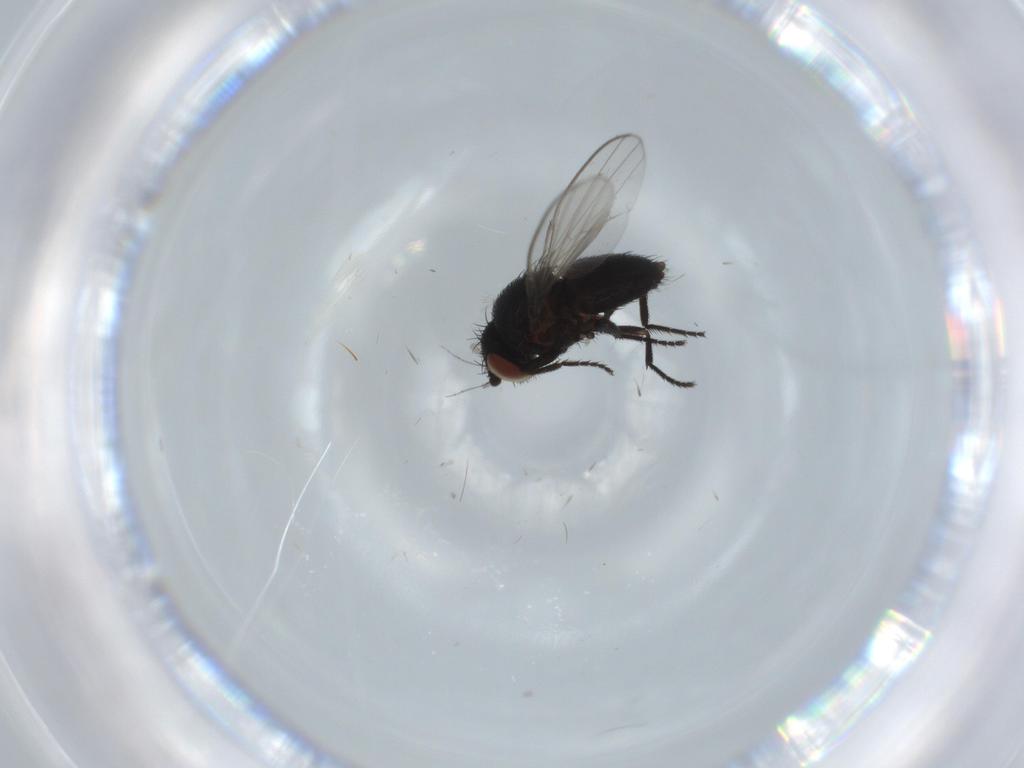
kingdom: Animalia
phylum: Arthropoda
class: Insecta
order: Diptera
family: Milichiidae
